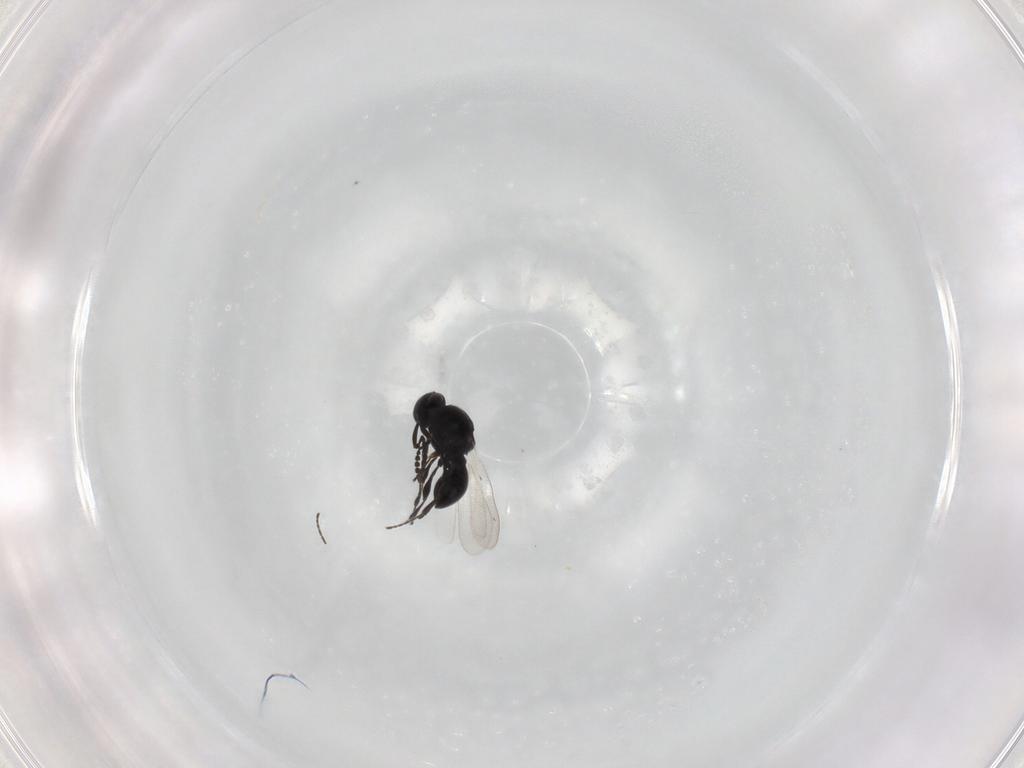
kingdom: Animalia
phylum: Arthropoda
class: Insecta
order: Hymenoptera
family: Platygastridae
